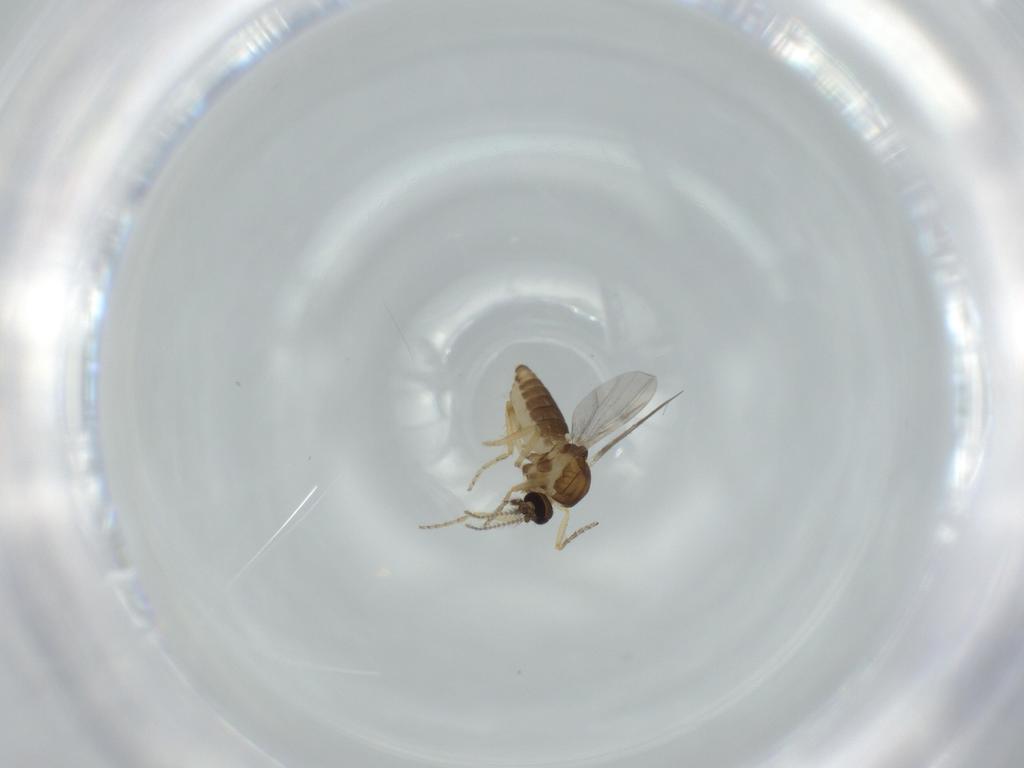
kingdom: Animalia
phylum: Arthropoda
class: Insecta
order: Diptera
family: Ceratopogonidae
